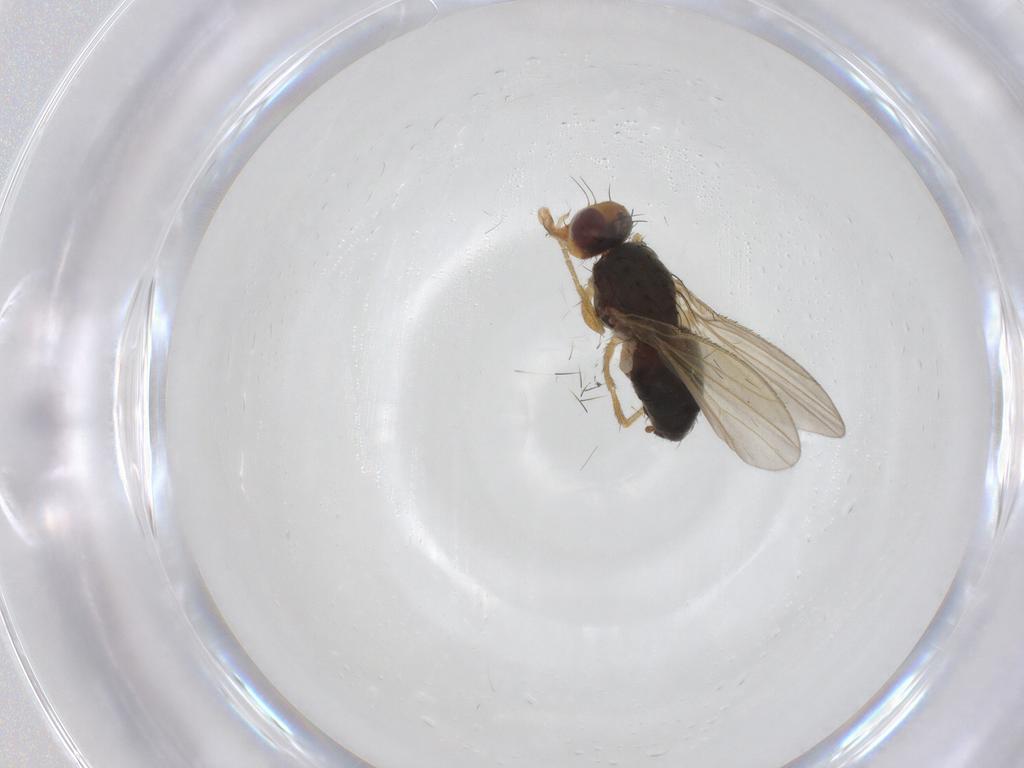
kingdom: Animalia
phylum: Arthropoda
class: Insecta
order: Diptera
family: Heleomyzidae
